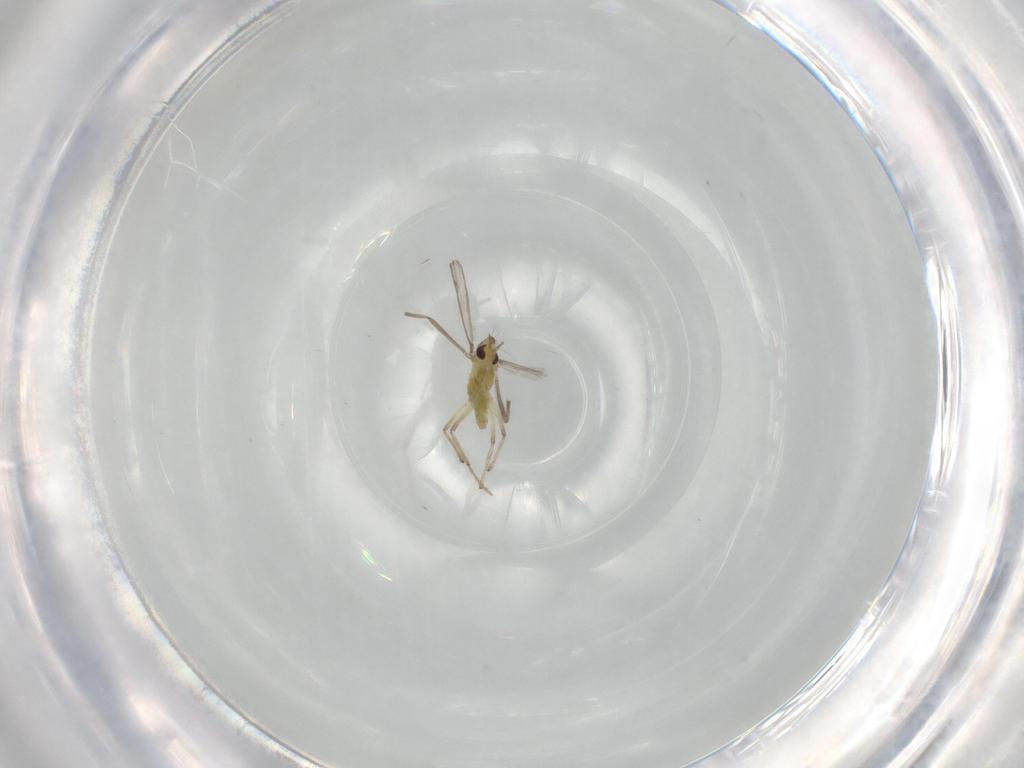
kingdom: Animalia
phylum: Arthropoda
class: Insecta
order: Diptera
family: Chironomidae
